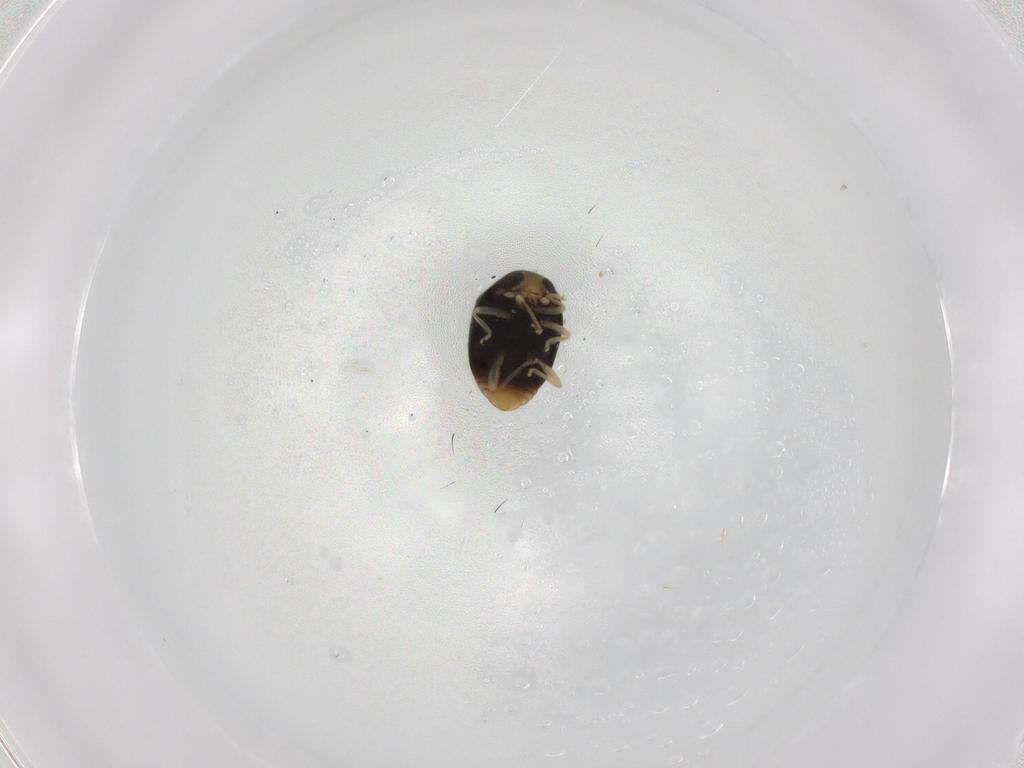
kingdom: Animalia
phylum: Arthropoda
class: Insecta
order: Coleoptera
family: Coccinellidae
